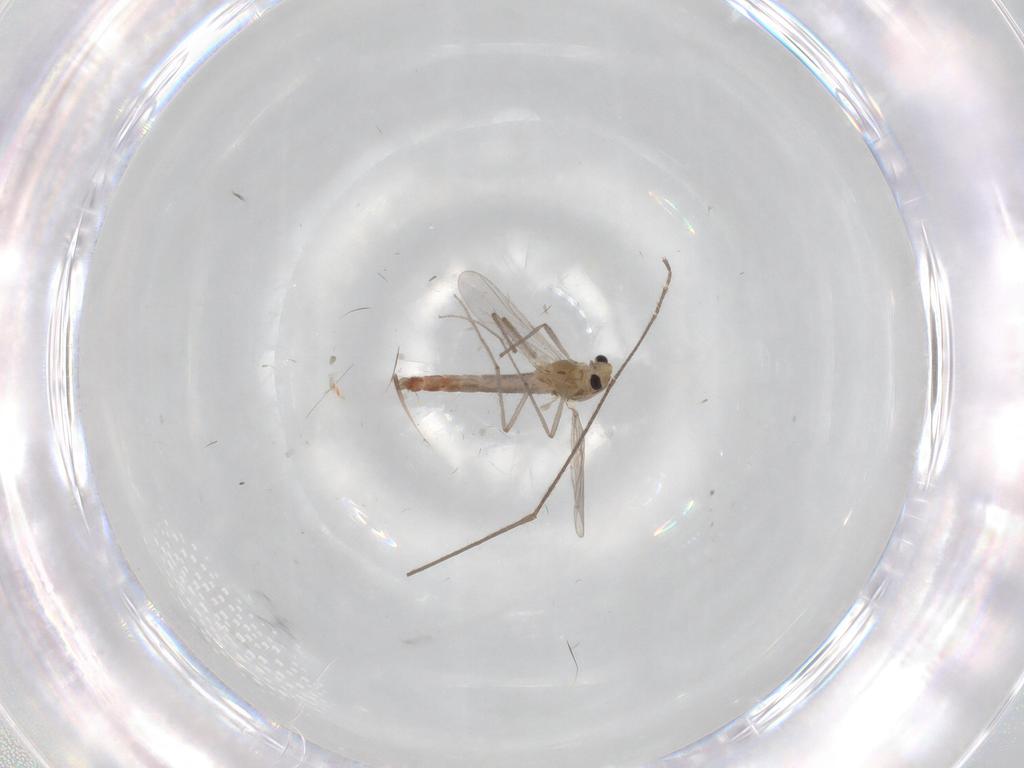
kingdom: Animalia
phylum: Arthropoda
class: Insecta
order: Diptera
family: Chironomidae
